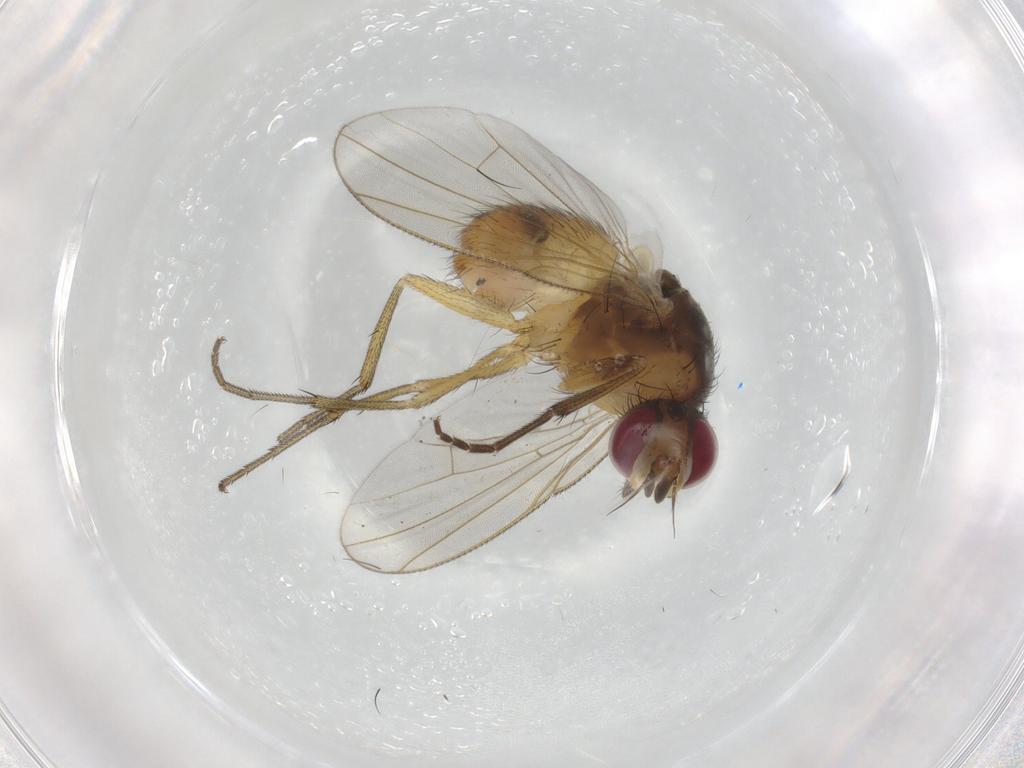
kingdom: Animalia
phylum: Arthropoda
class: Insecta
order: Diptera
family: Muscidae
